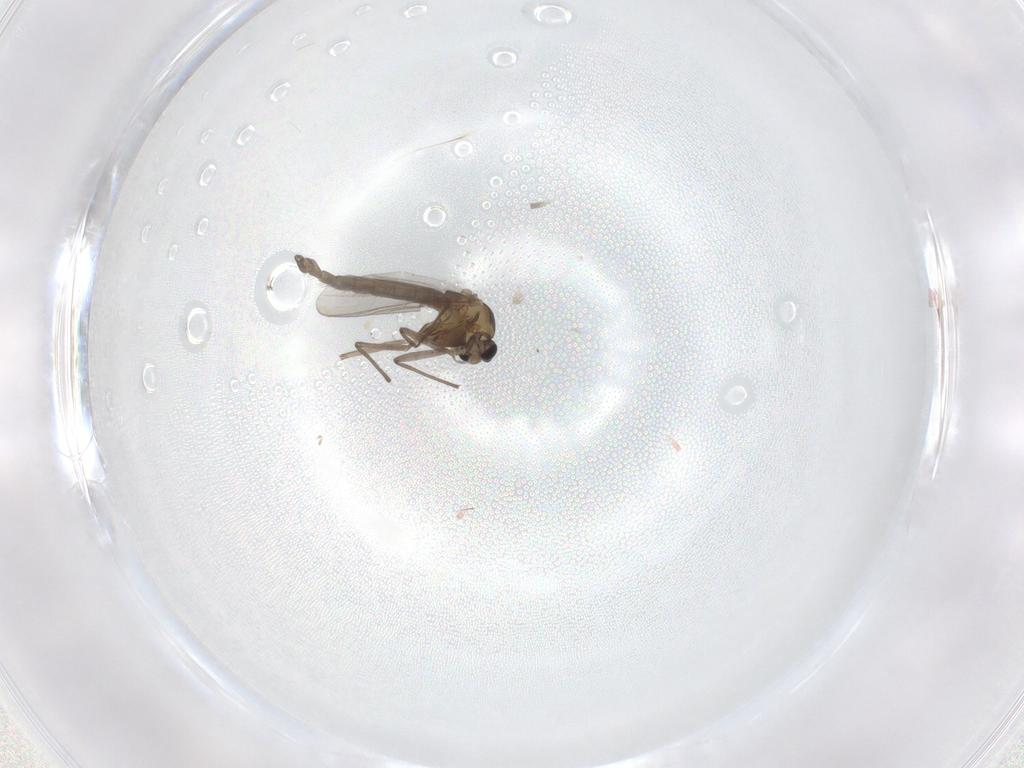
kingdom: Animalia
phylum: Arthropoda
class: Insecta
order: Diptera
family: Chironomidae
